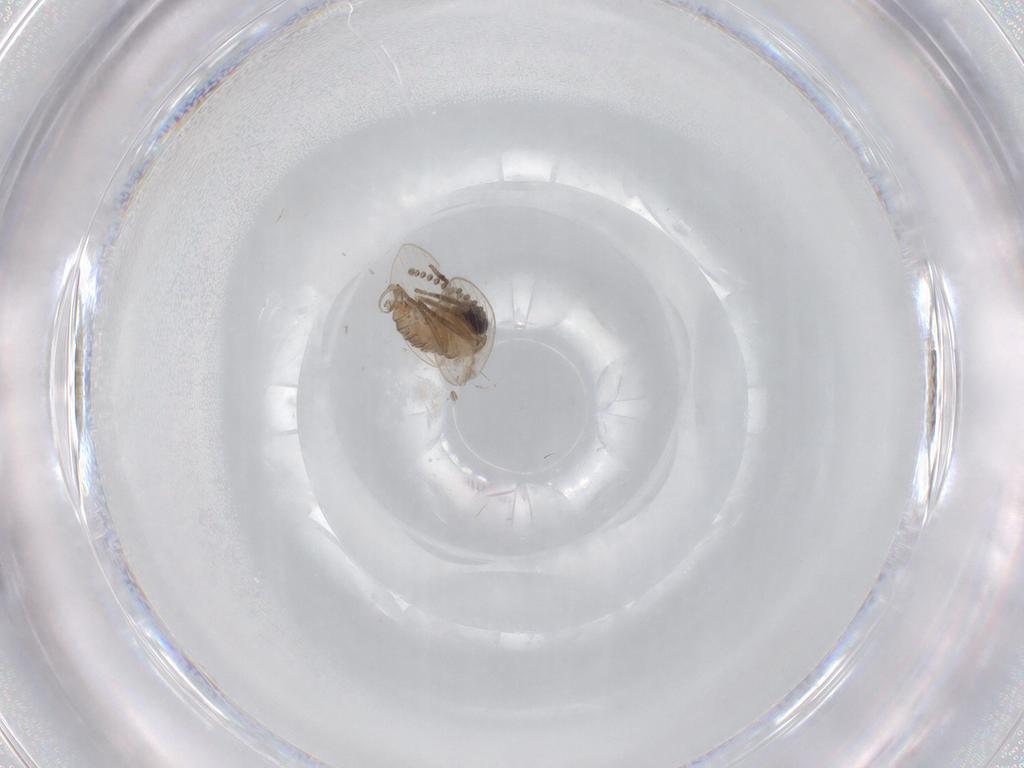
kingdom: Animalia
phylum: Arthropoda
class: Insecta
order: Diptera
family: Psychodidae
